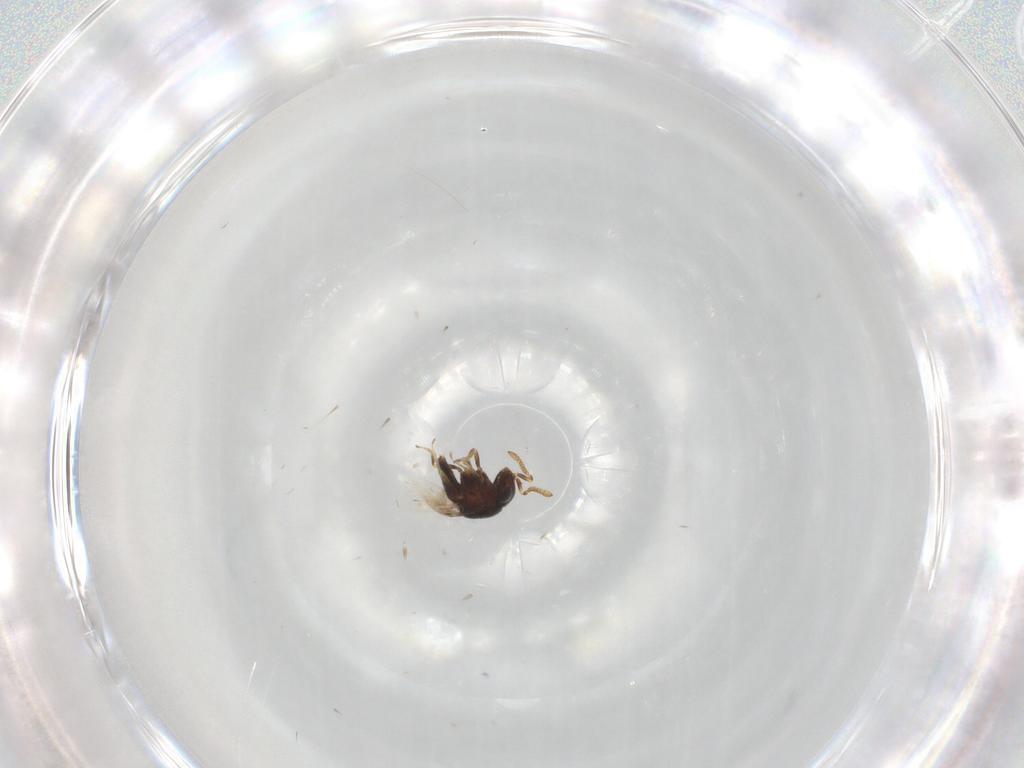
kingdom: Animalia
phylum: Arthropoda
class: Insecta
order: Hymenoptera
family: Scelionidae
